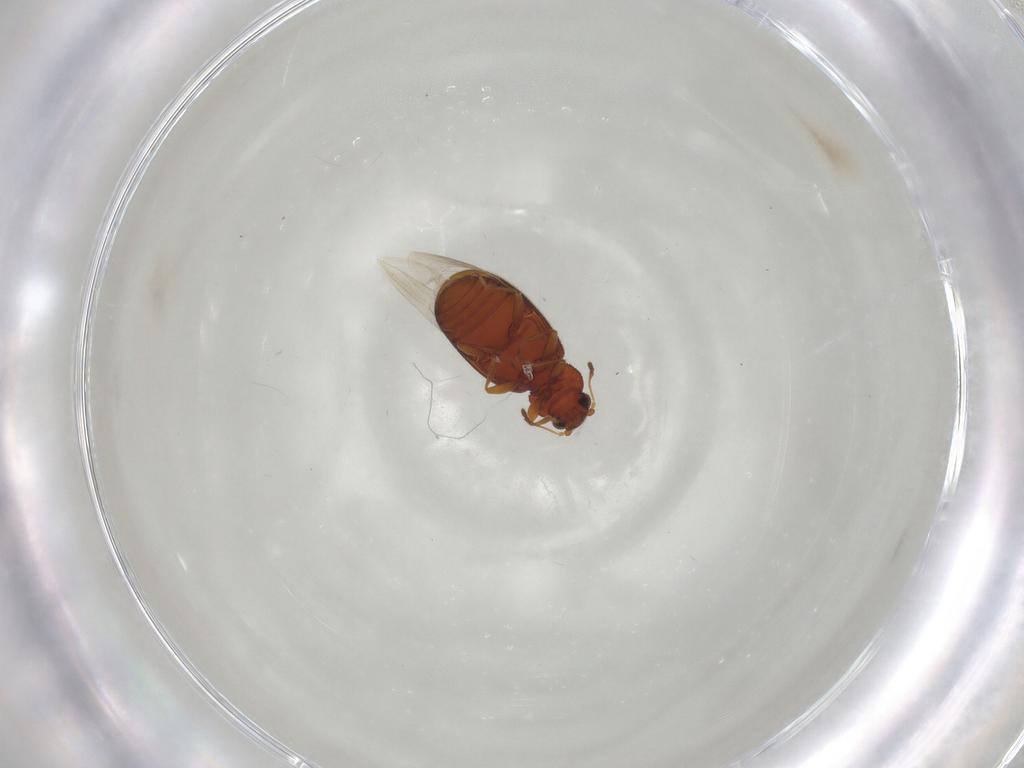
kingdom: Animalia
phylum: Arthropoda
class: Insecta
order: Coleoptera
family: Latridiidae
